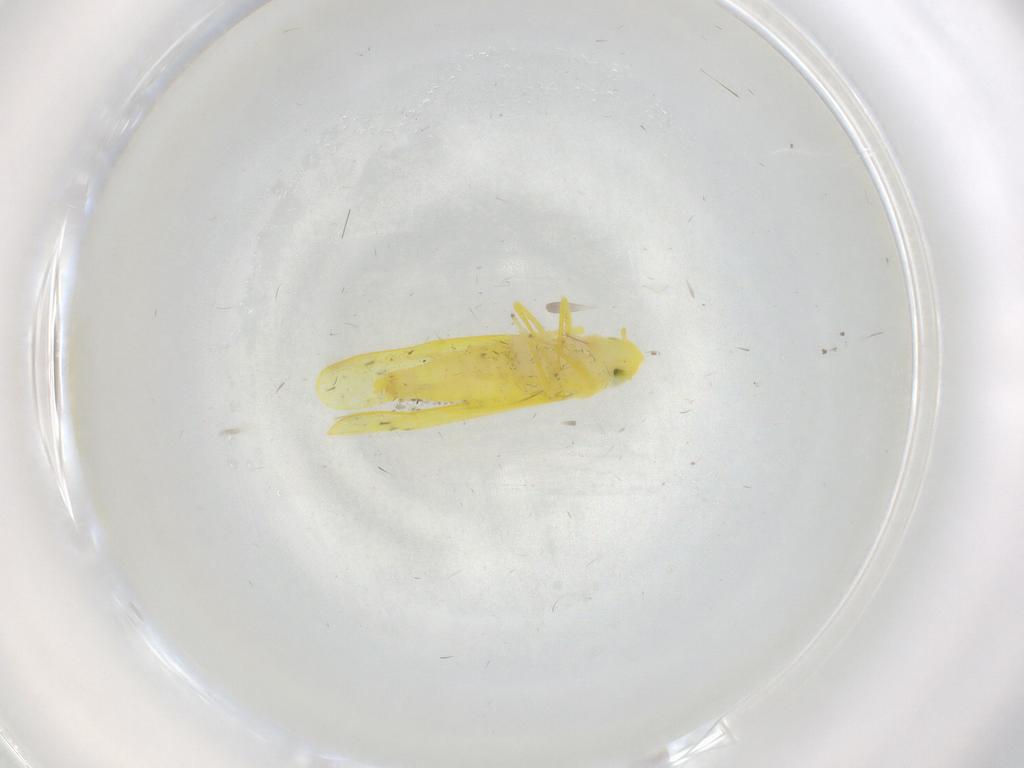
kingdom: Animalia
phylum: Arthropoda
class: Insecta
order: Hemiptera
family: Cicadellidae
